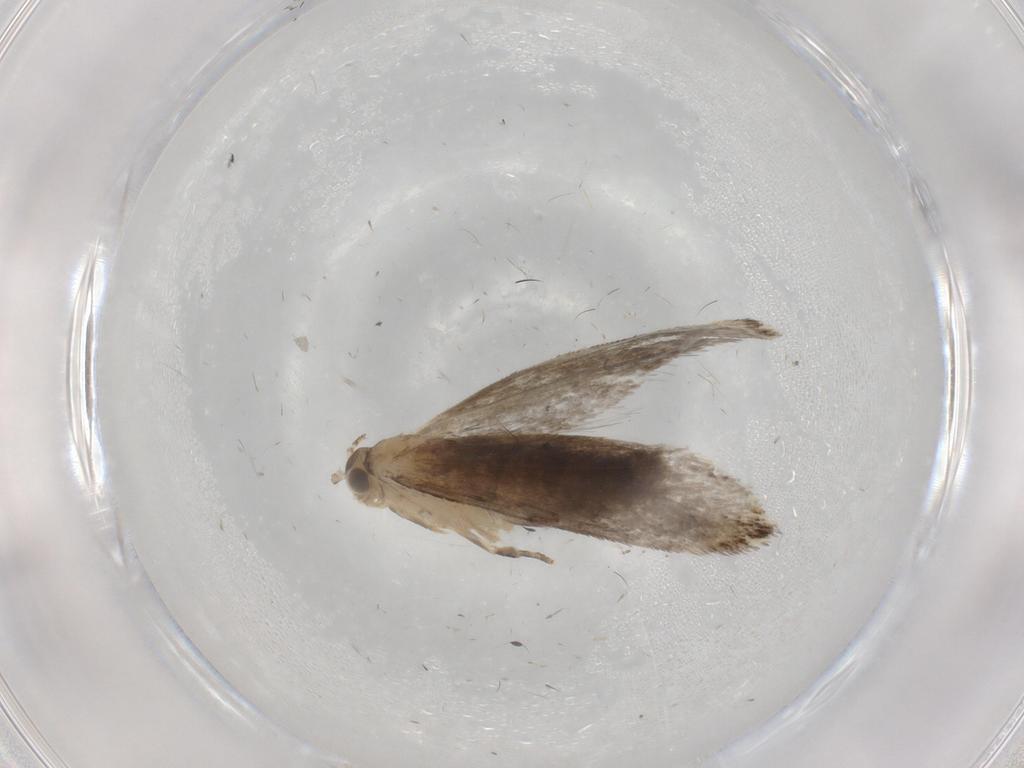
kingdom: Animalia
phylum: Arthropoda
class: Insecta
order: Lepidoptera
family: Tineidae
